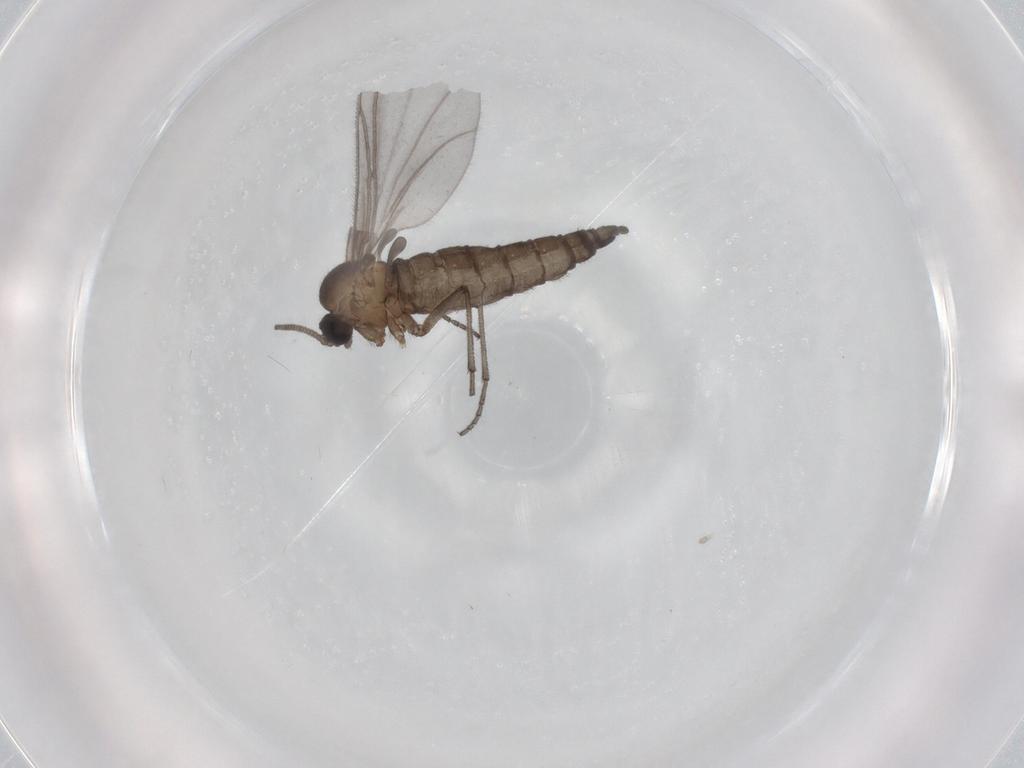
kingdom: Animalia
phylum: Arthropoda
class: Insecta
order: Diptera
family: Sciaridae
